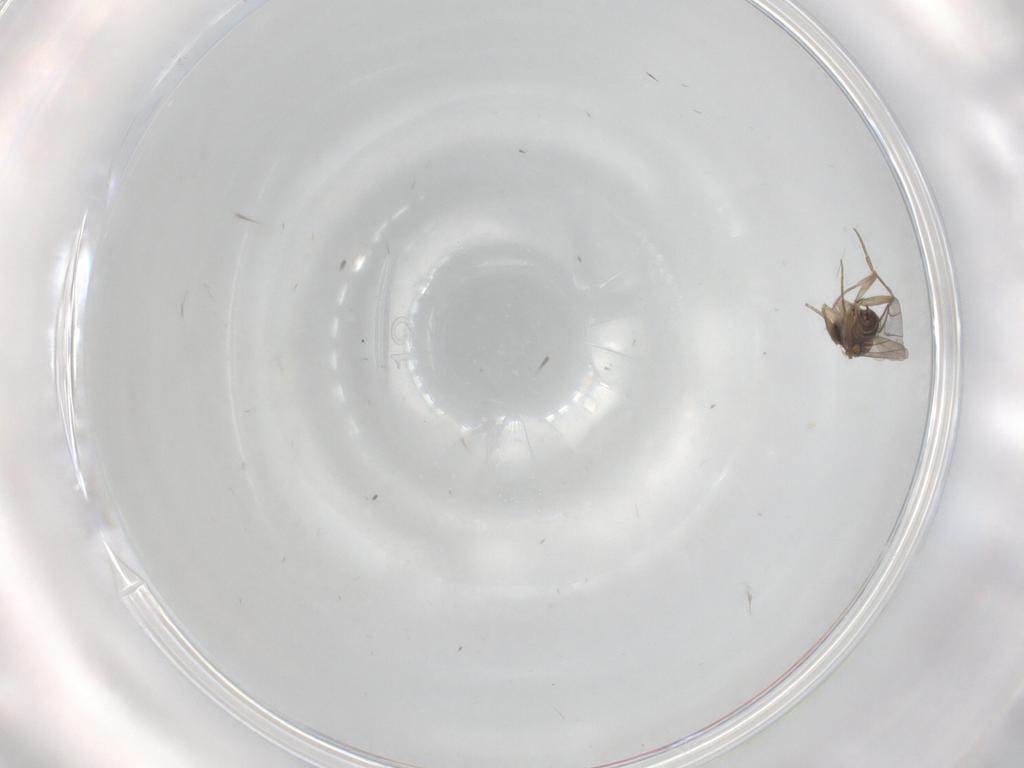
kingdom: Animalia
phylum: Arthropoda
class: Insecta
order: Diptera
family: Phoridae
